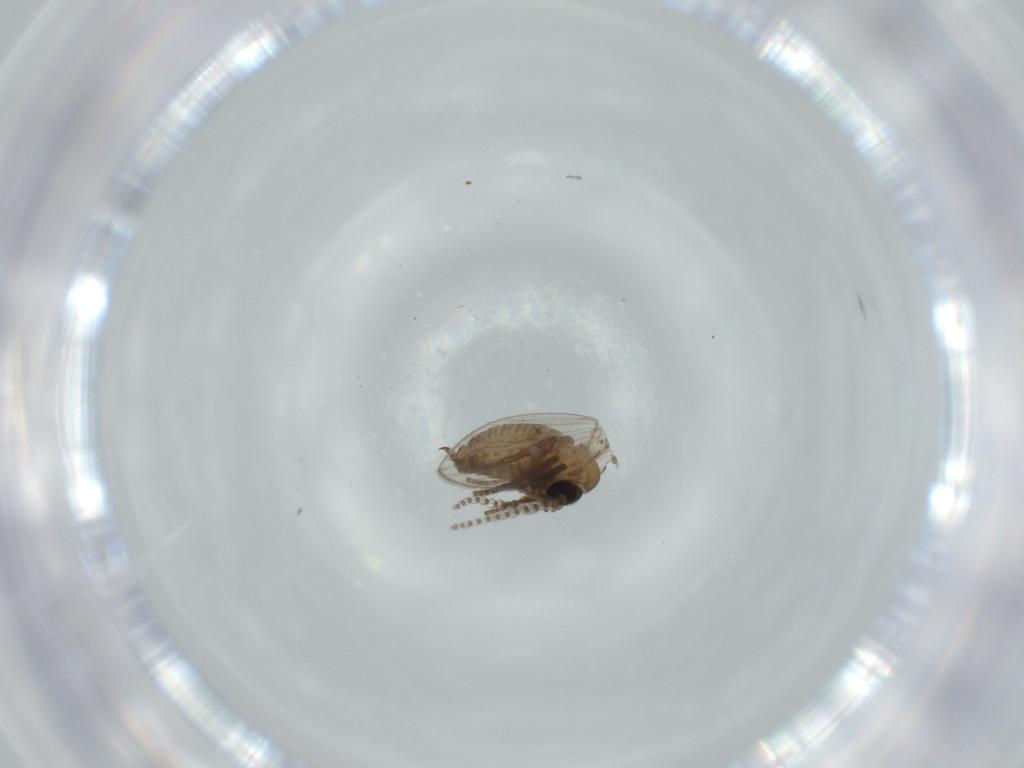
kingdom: Animalia
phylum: Arthropoda
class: Insecta
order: Diptera
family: Psychodidae
